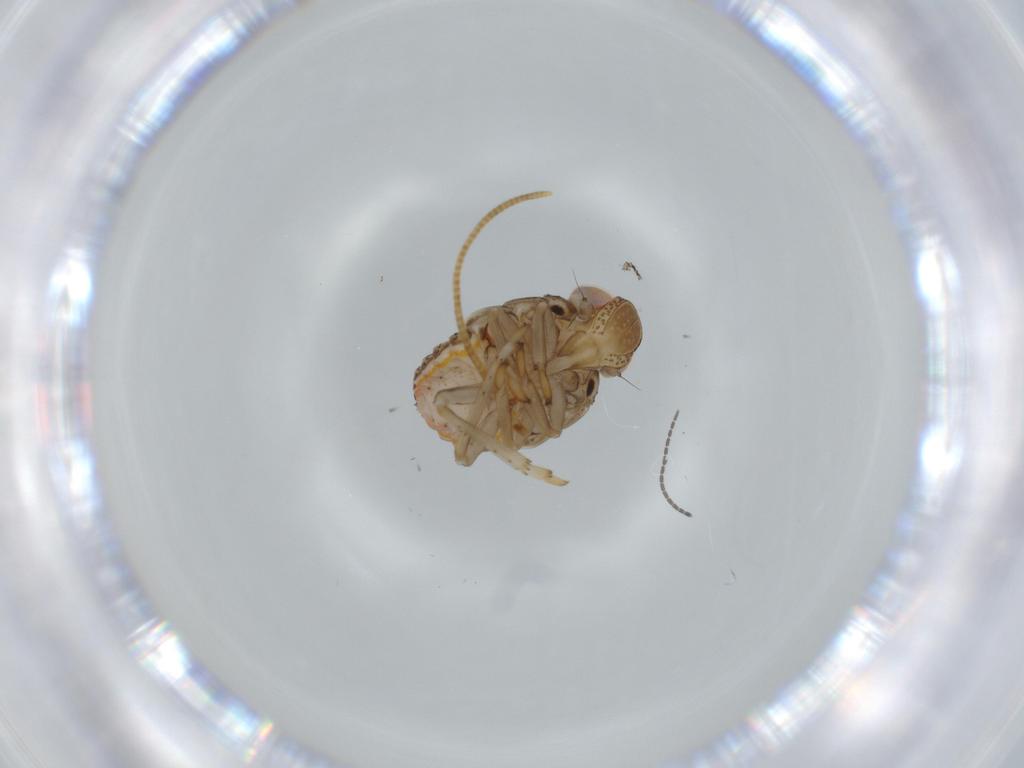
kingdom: Animalia
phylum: Arthropoda
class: Insecta
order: Hemiptera
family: Issidae
